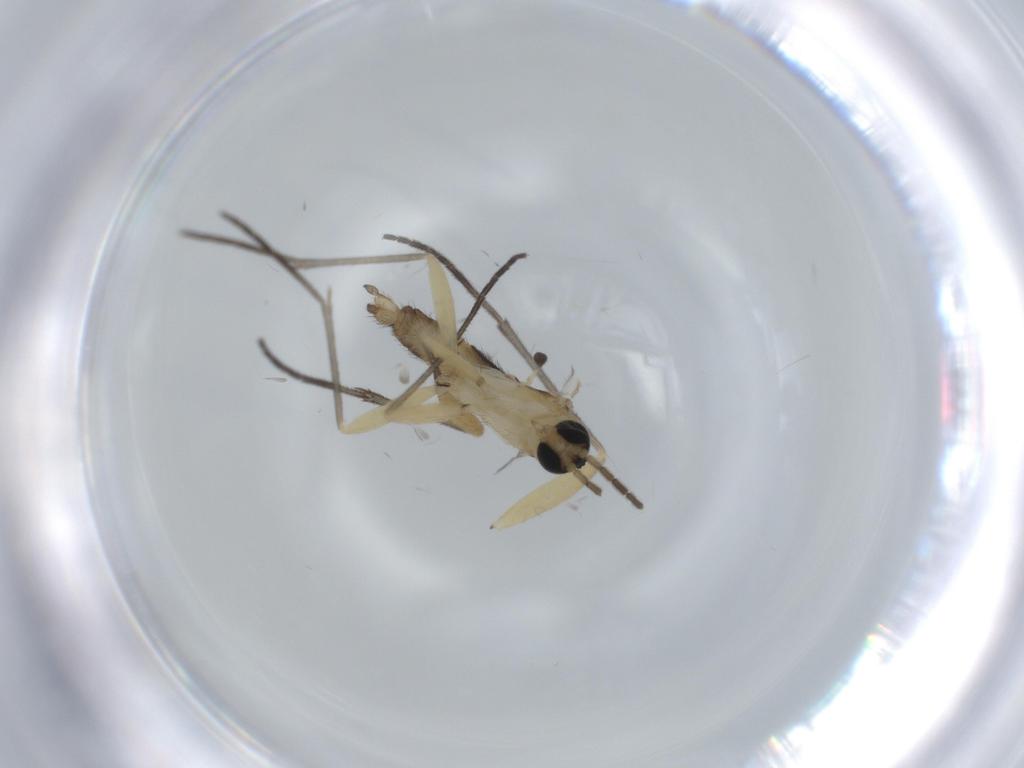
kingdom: Animalia
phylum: Arthropoda
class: Insecta
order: Diptera
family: Sciaridae
